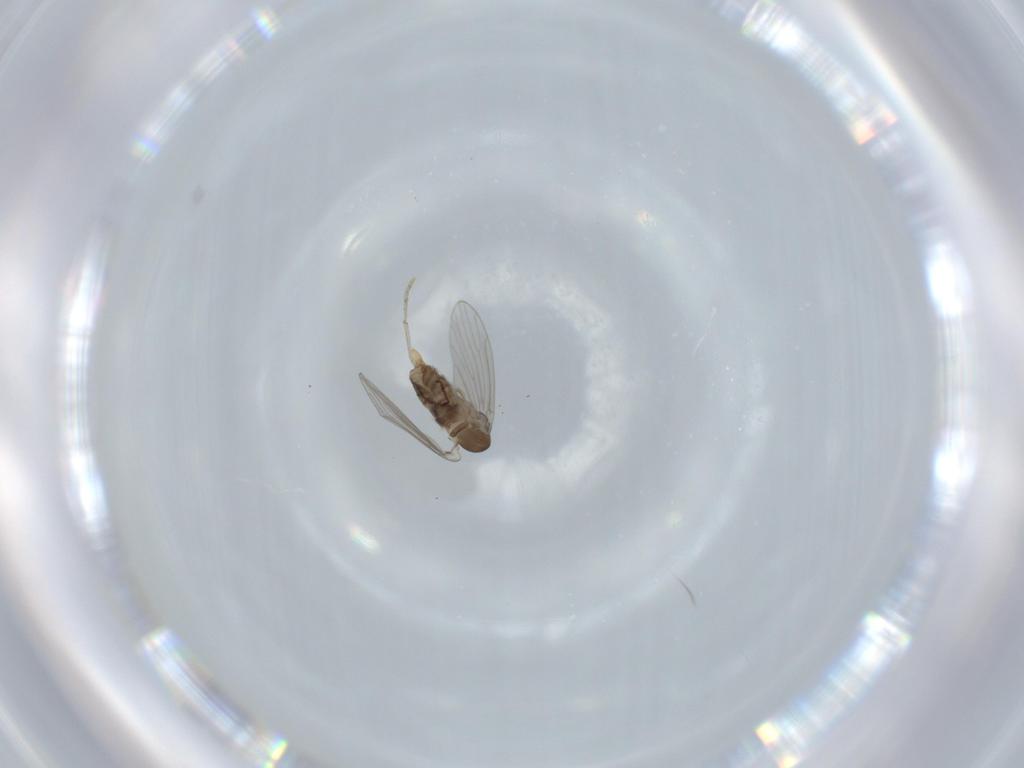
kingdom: Animalia
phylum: Arthropoda
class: Insecta
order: Diptera
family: Psychodidae
